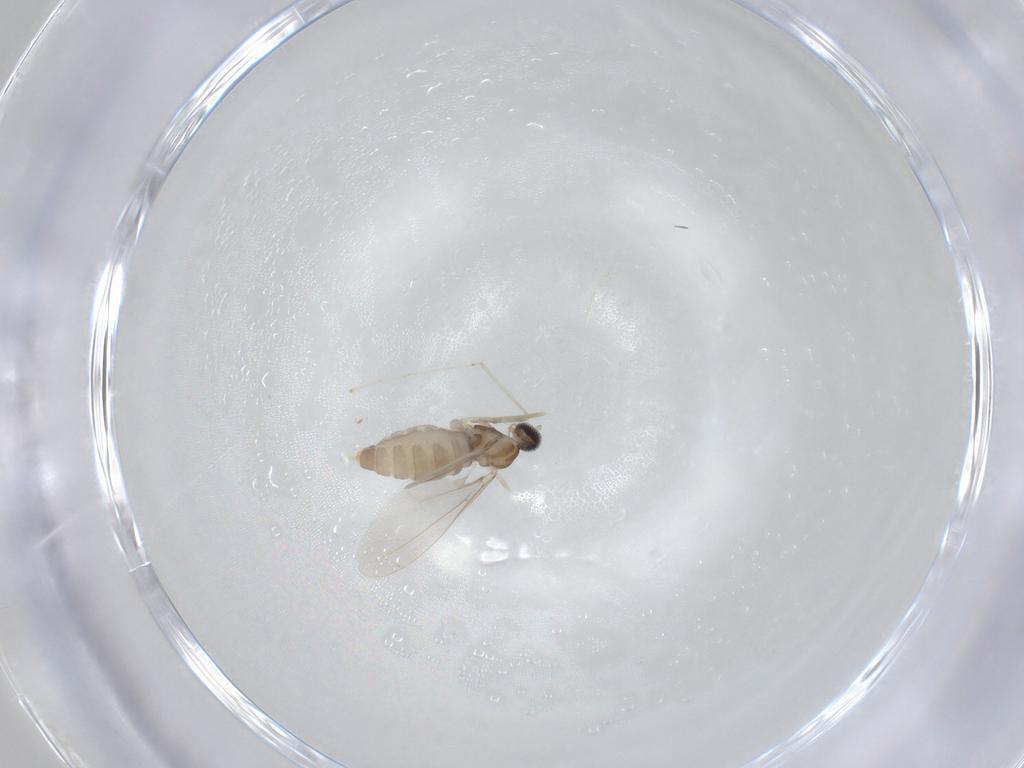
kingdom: Animalia
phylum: Arthropoda
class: Insecta
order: Diptera
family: Cecidomyiidae
